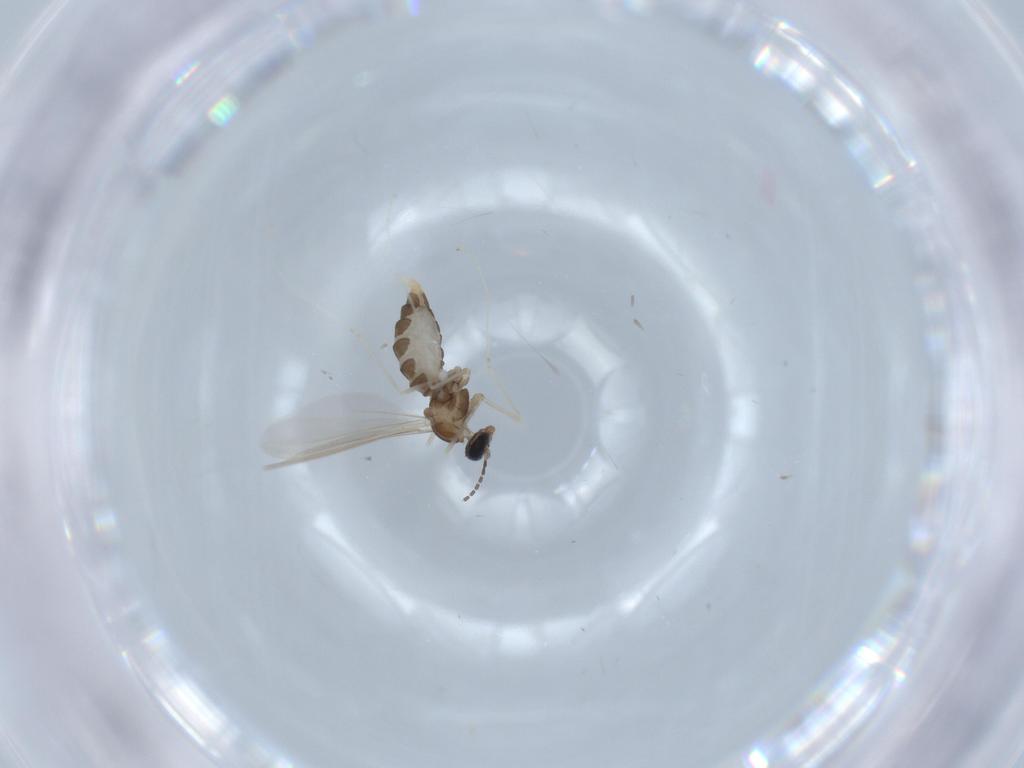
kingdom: Animalia
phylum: Arthropoda
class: Insecta
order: Diptera
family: Cecidomyiidae
